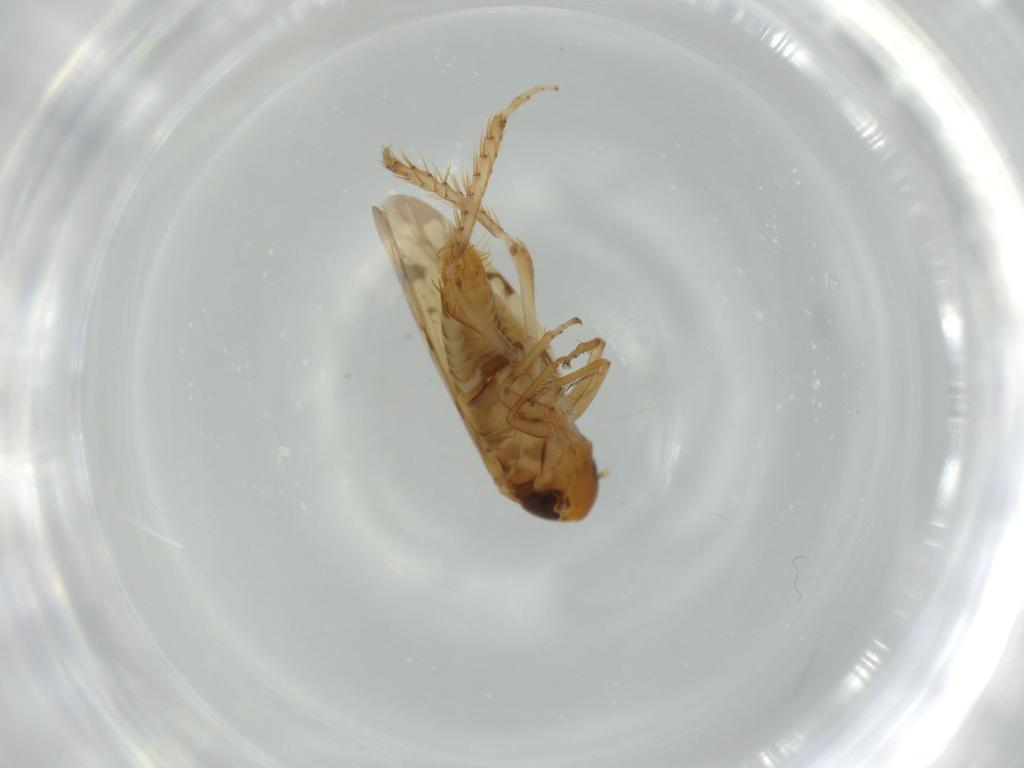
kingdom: Animalia
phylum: Arthropoda
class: Insecta
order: Hemiptera
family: Cicadellidae
